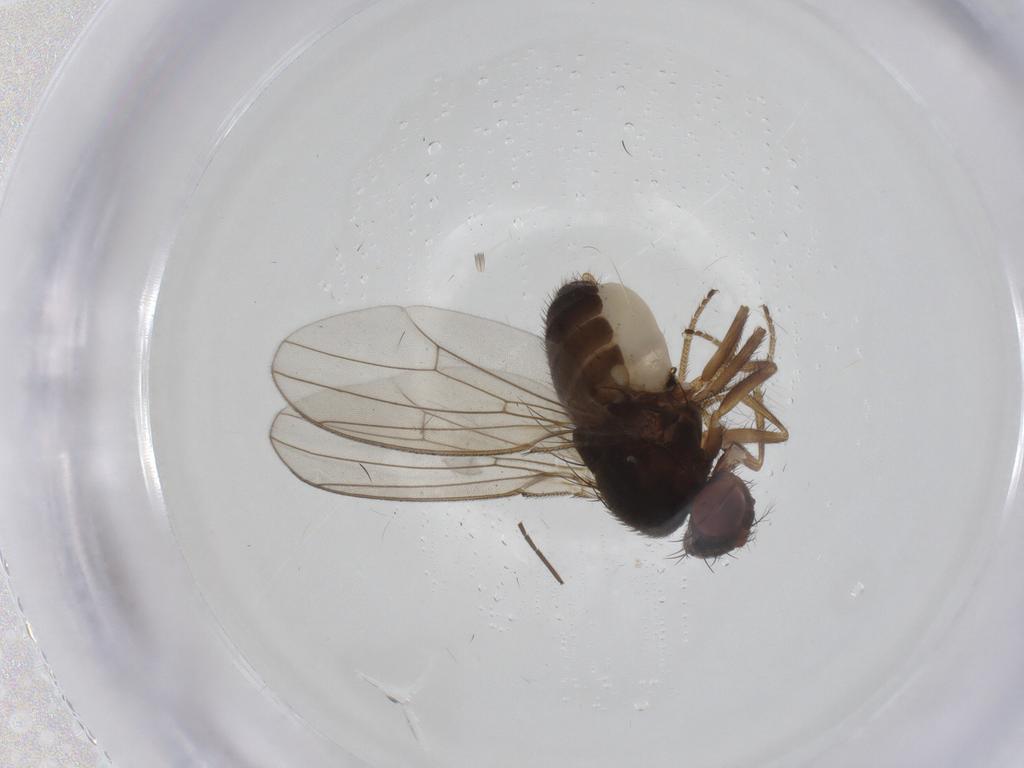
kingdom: Animalia
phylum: Arthropoda
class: Insecta
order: Diptera
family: Drosophilidae
